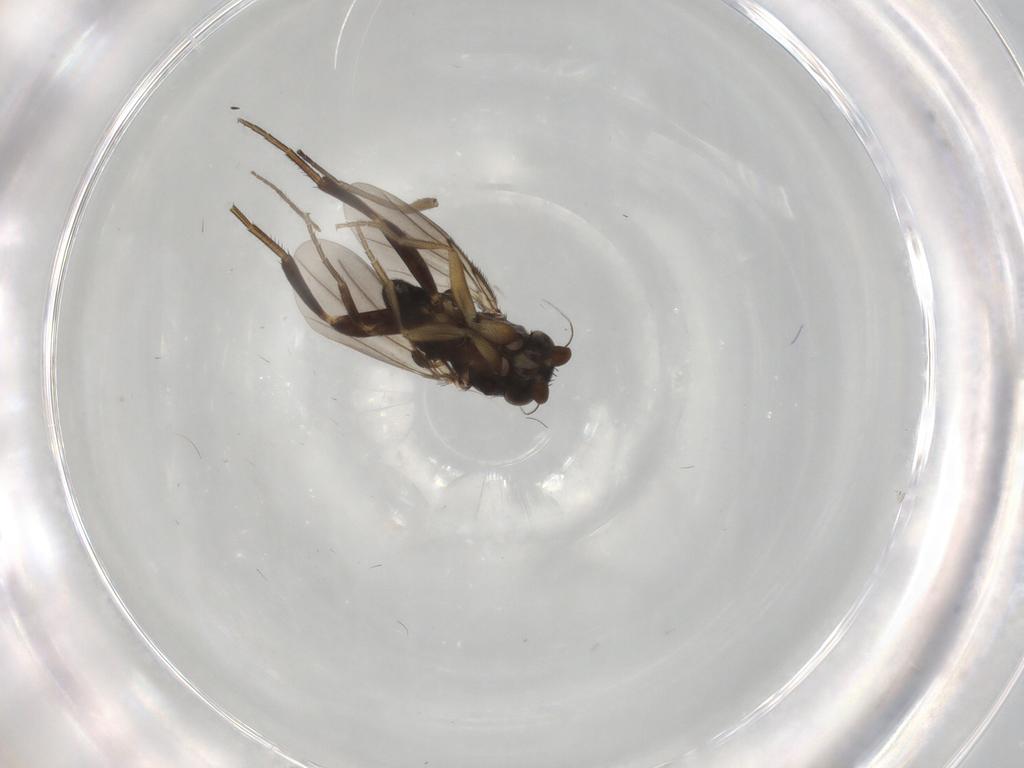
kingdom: Animalia
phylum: Arthropoda
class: Insecta
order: Diptera
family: Phoridae
